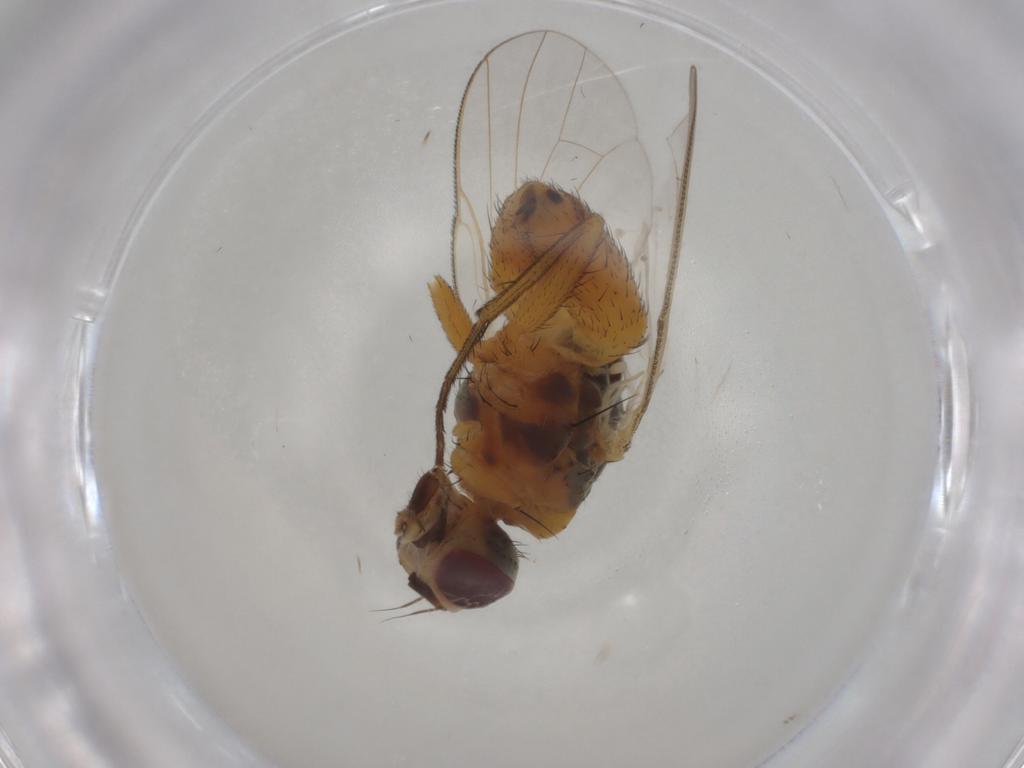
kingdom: Animalia
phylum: Arthropoda
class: Insecta
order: Diptera
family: Muscidae
